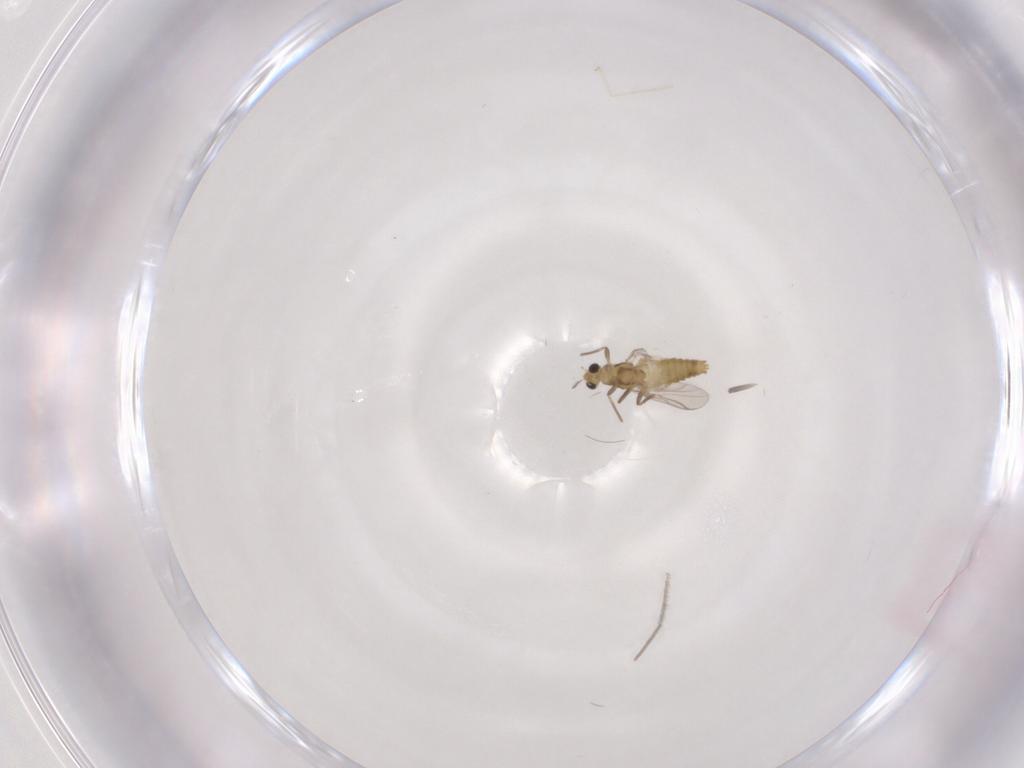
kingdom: Animalia
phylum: Arthropoda
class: Insecta
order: Diptera
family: Chironomidae
